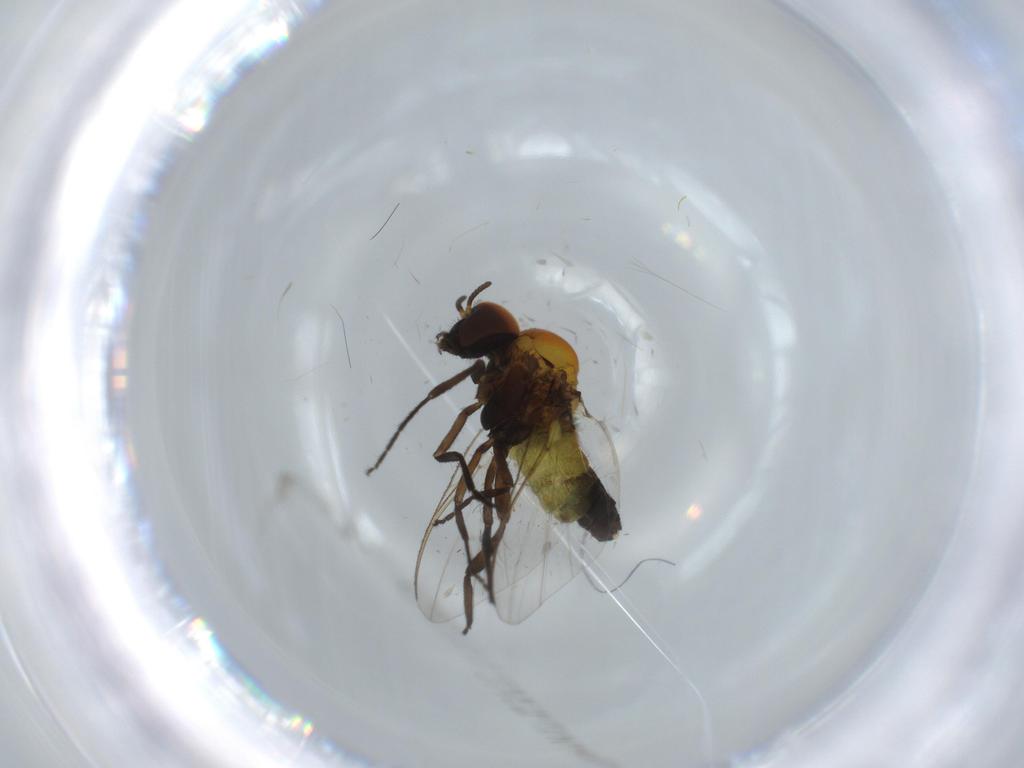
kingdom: Animalia
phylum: Arthropoda
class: Insecta
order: Diptera
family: Sciaridae
